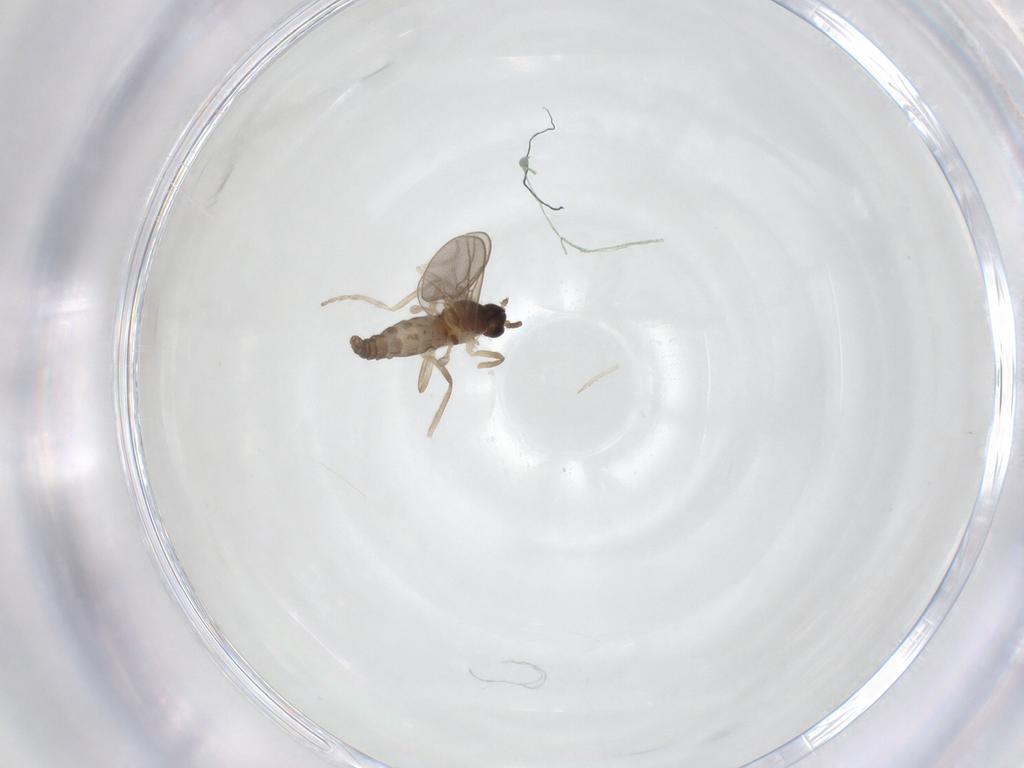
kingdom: Animalia
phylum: Arthropoda
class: Insecta
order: Diptera
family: Cecidomyiidae
